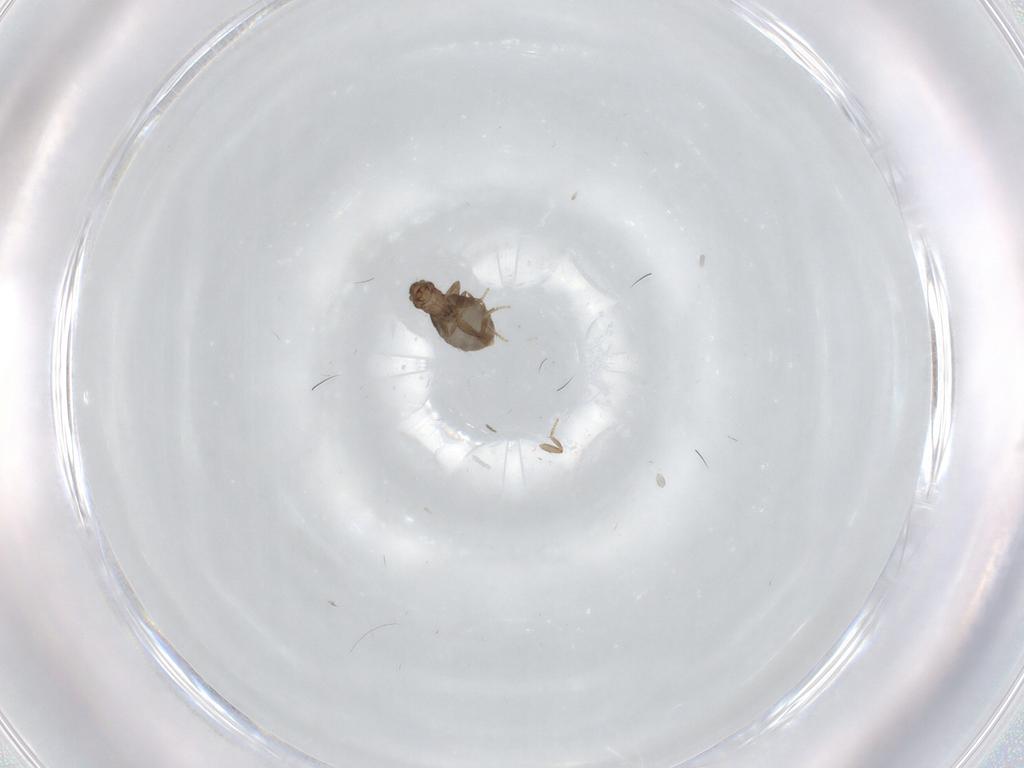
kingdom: Animalia
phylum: Arthropoda
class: Insecta
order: Diptera
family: Phoridae
